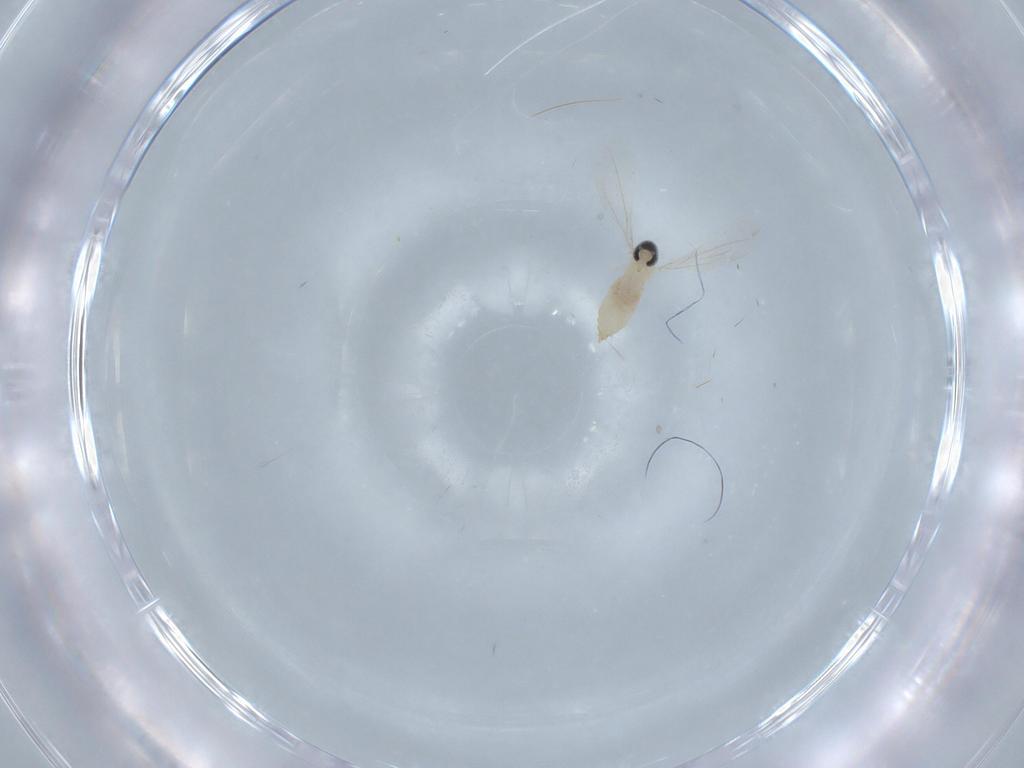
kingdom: Animalia
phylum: Arthropoda
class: Insecta
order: Diptera
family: Cecidomyiidae
